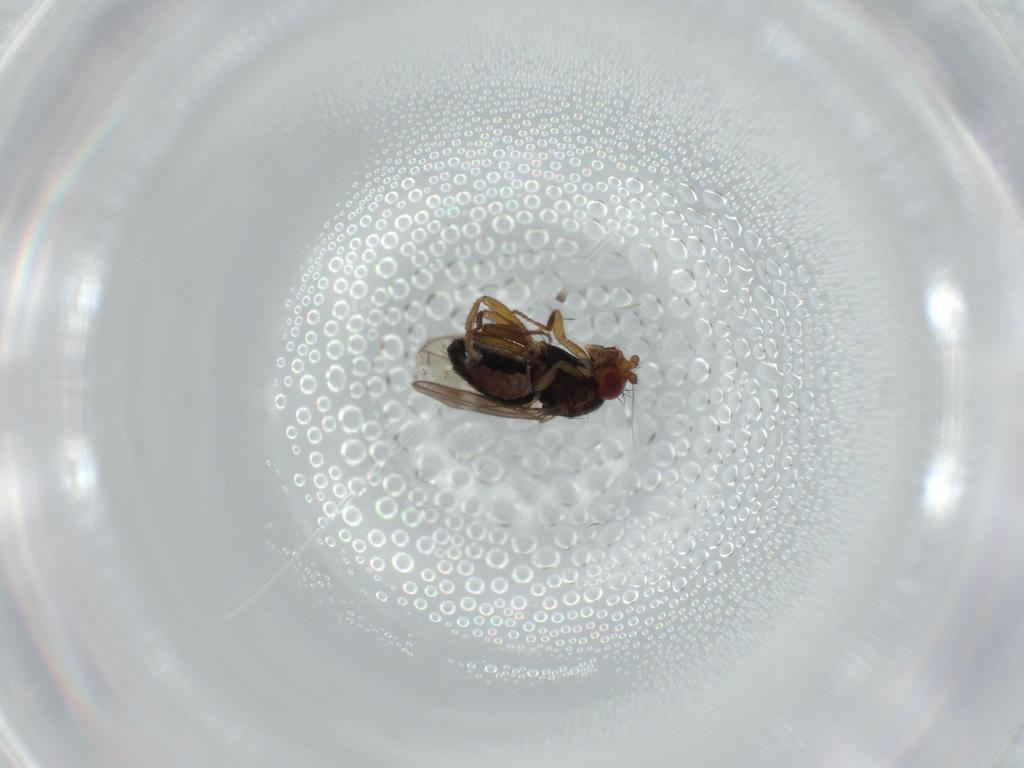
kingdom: Animalia
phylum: Arthropoda
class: Insecta
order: Diptera
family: Sphaeroceridae
